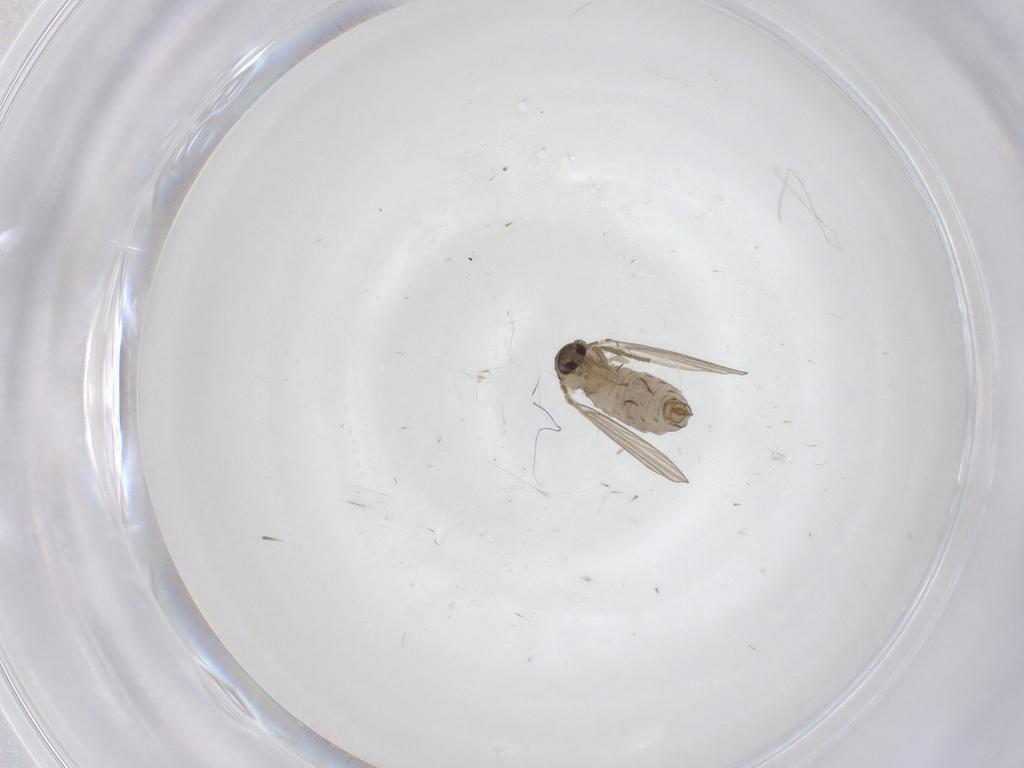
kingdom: Animalia
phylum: Arthropoda
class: Insecta
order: Diptera
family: Psychodidae
